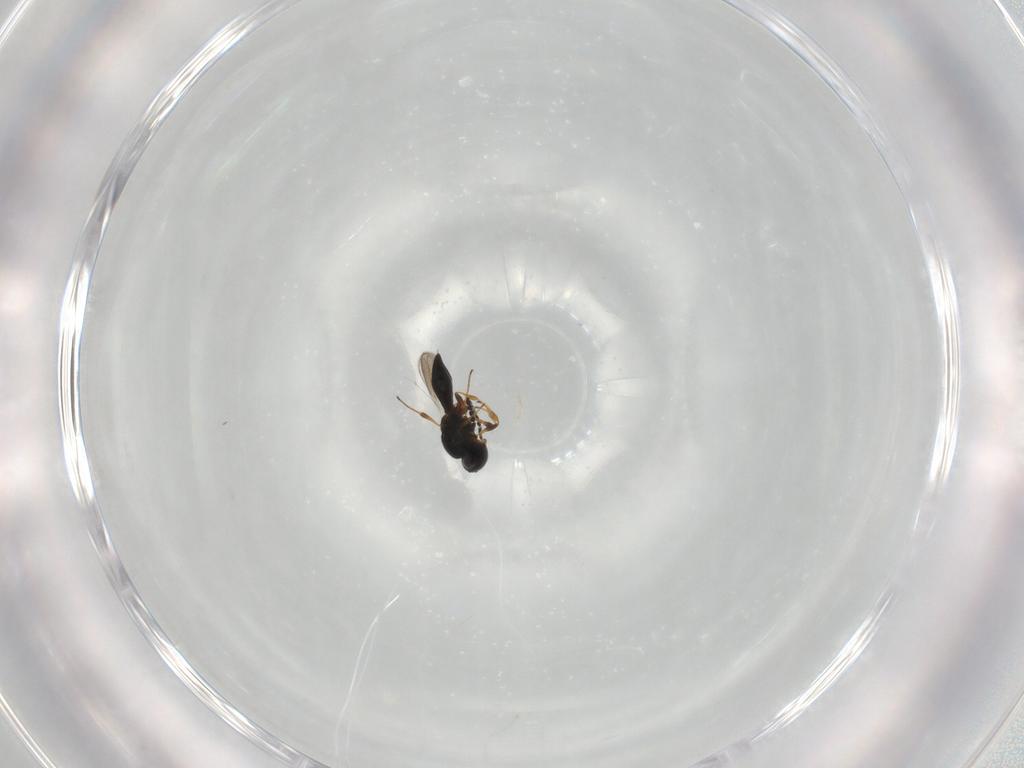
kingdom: Animalia
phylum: Arthropoda
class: Insecta
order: Hymenoptera
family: Platygastridae
